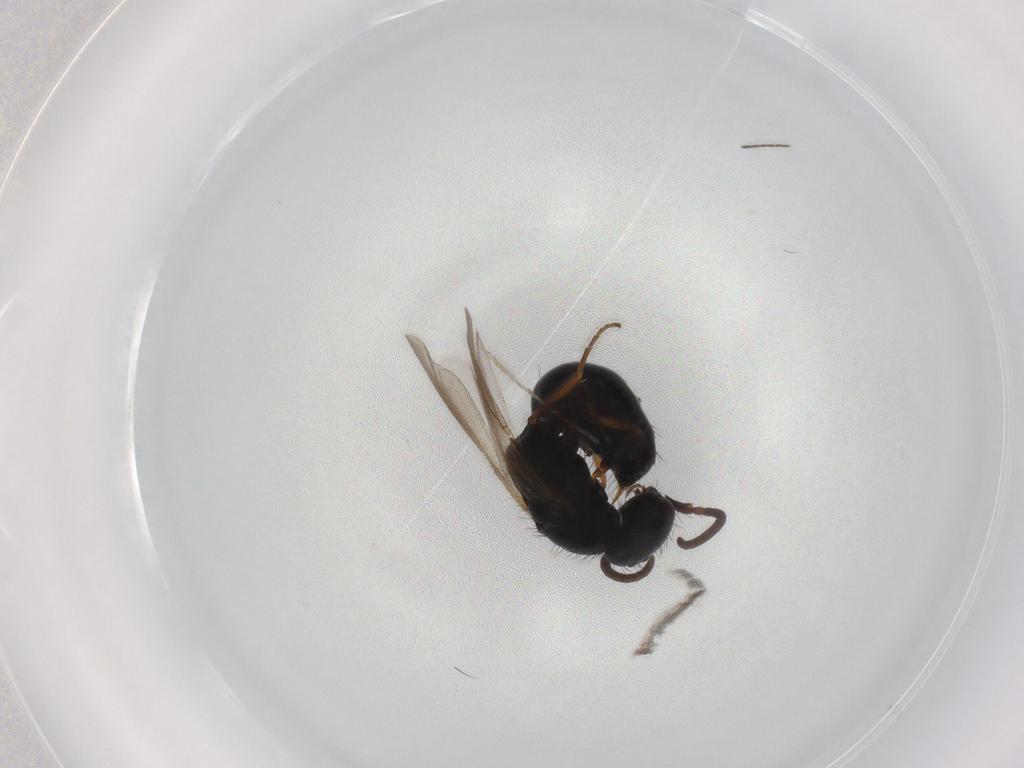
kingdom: Animalia
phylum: Arthropoda
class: Insecta
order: Hymenoptera
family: Bethylidae
